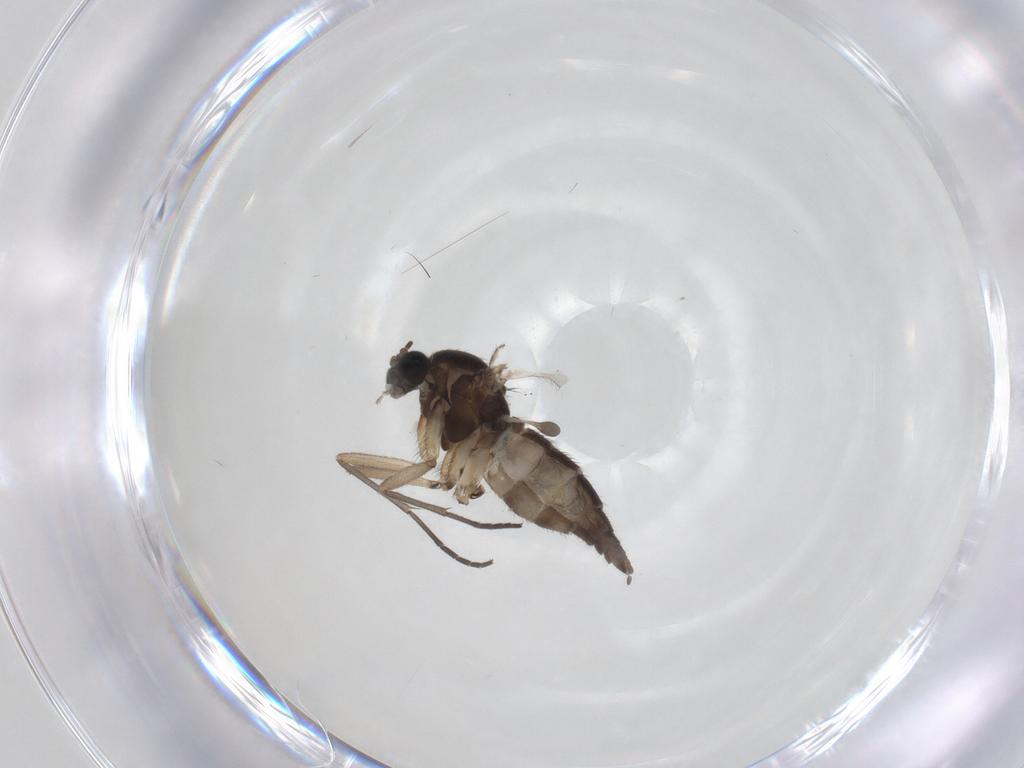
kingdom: Animalia
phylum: Arthropoda
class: Insecta
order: Diptera
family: Sciaridae
